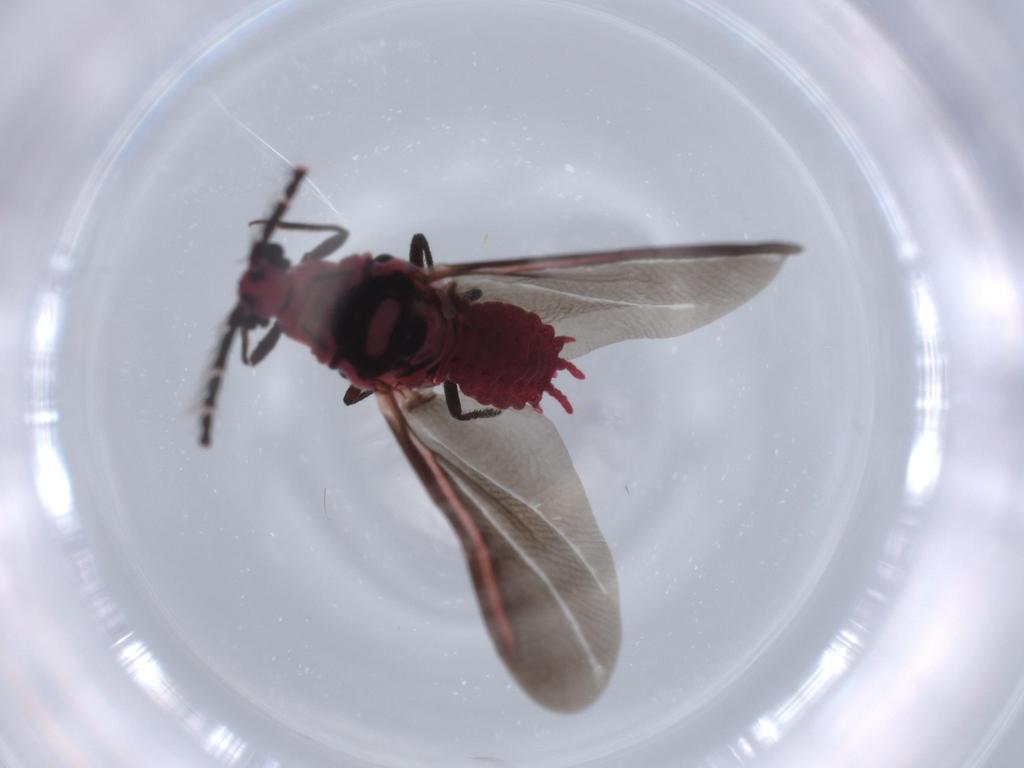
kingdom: Animalia
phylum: Arthropoda
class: Insecta
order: Hemiptera
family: Monophlebidae
